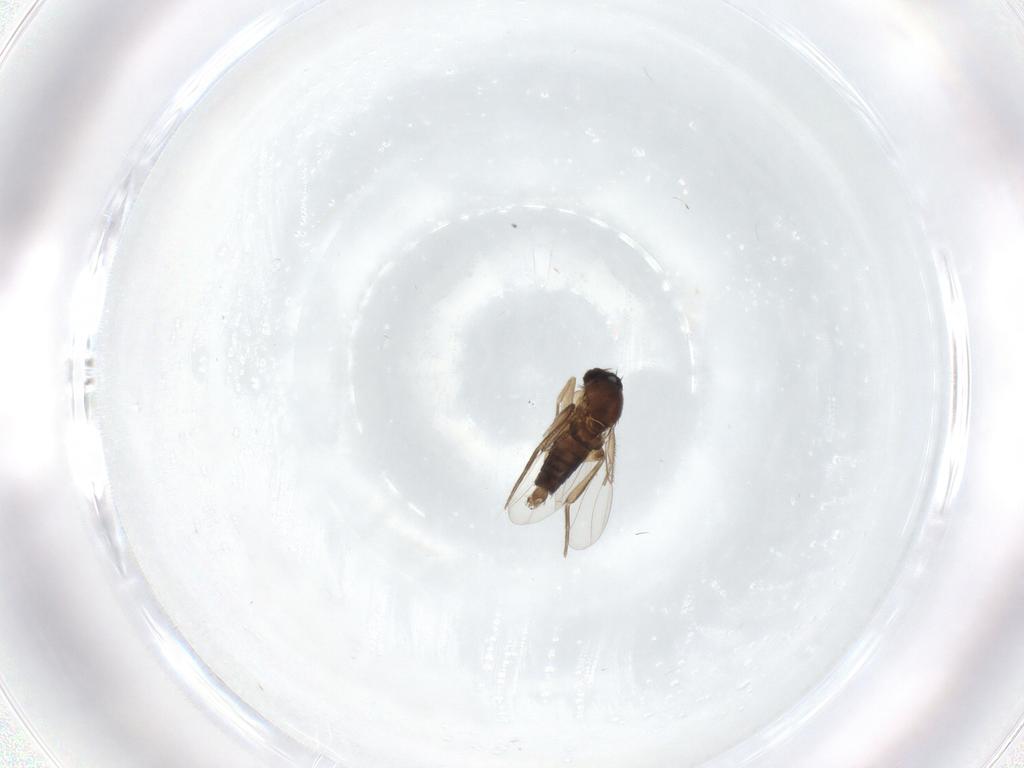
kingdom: Animalia
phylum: Arthropoda
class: Insecta
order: Diptera
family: Phoridae
